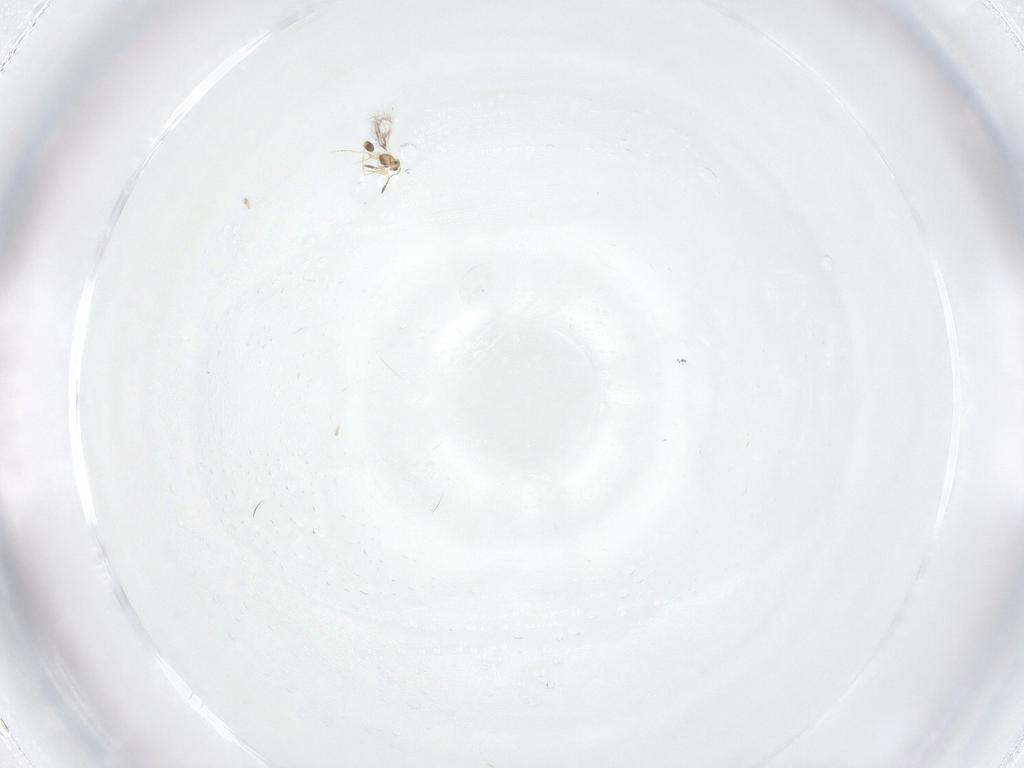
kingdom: Animalia
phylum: Arthropoda
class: Insecta
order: Hymenoptera
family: Mymarommatidae
